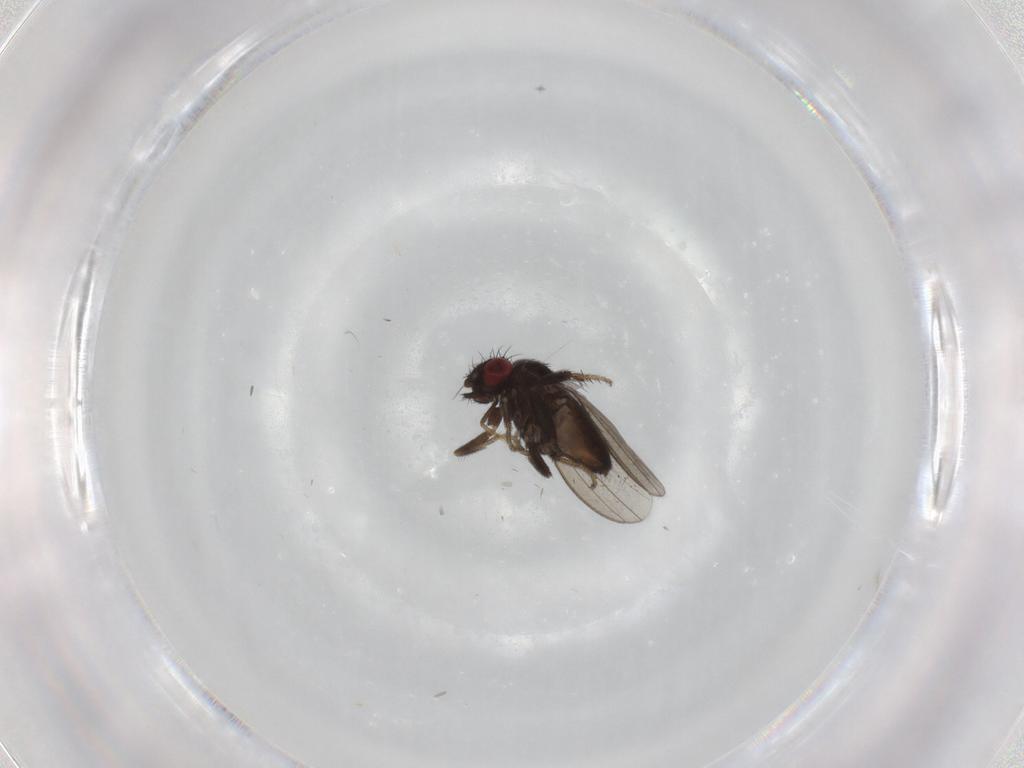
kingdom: Animalia
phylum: Arthropoda
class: Insecta
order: Diptera
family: Milichiidae
